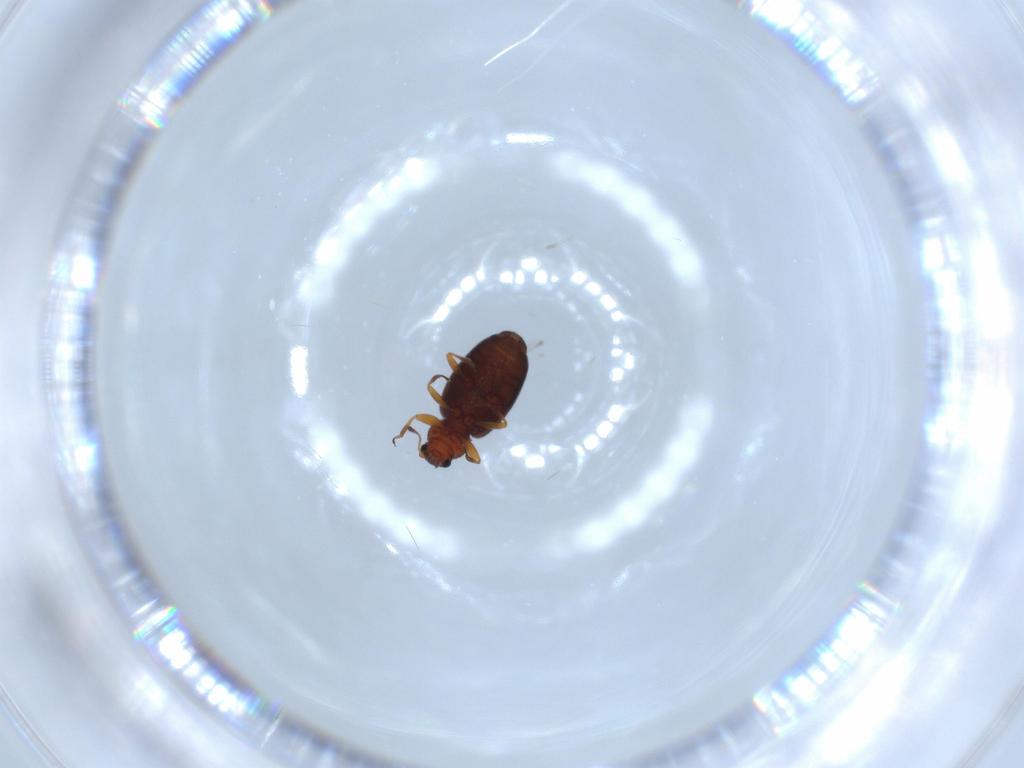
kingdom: Animalia
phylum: Arthropoda
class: Insecta
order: Coleoptera
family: Latridiidae
